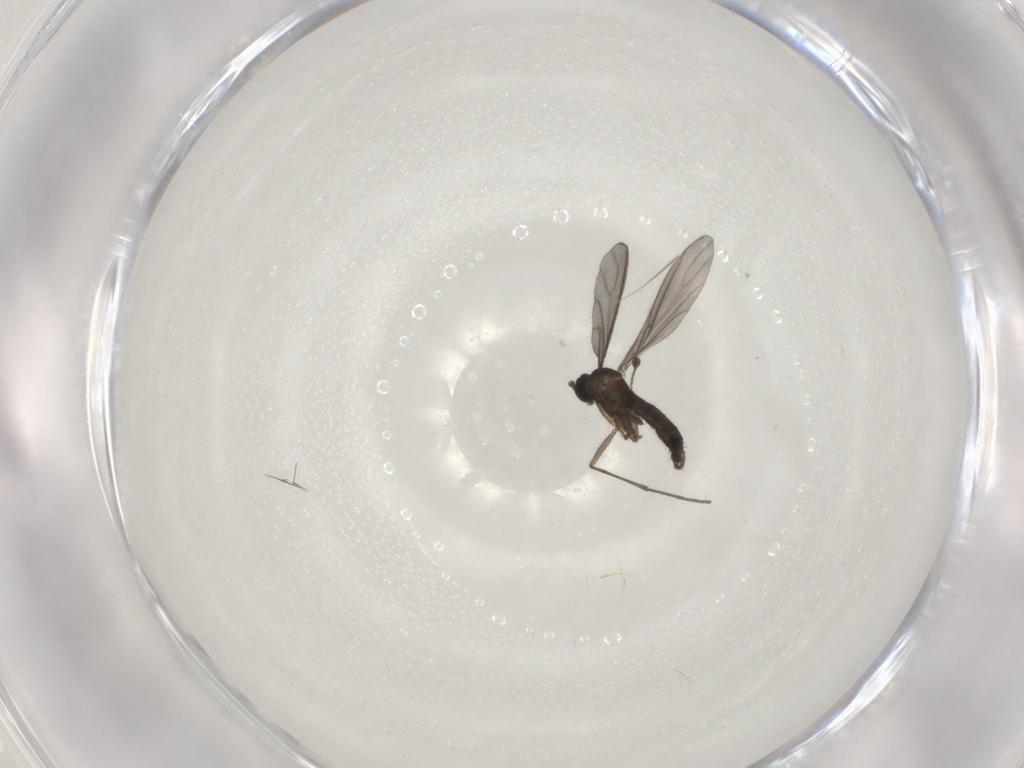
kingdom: Animalia
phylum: Arthropoda
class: Insecta
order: Diptera
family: Sciaridae
